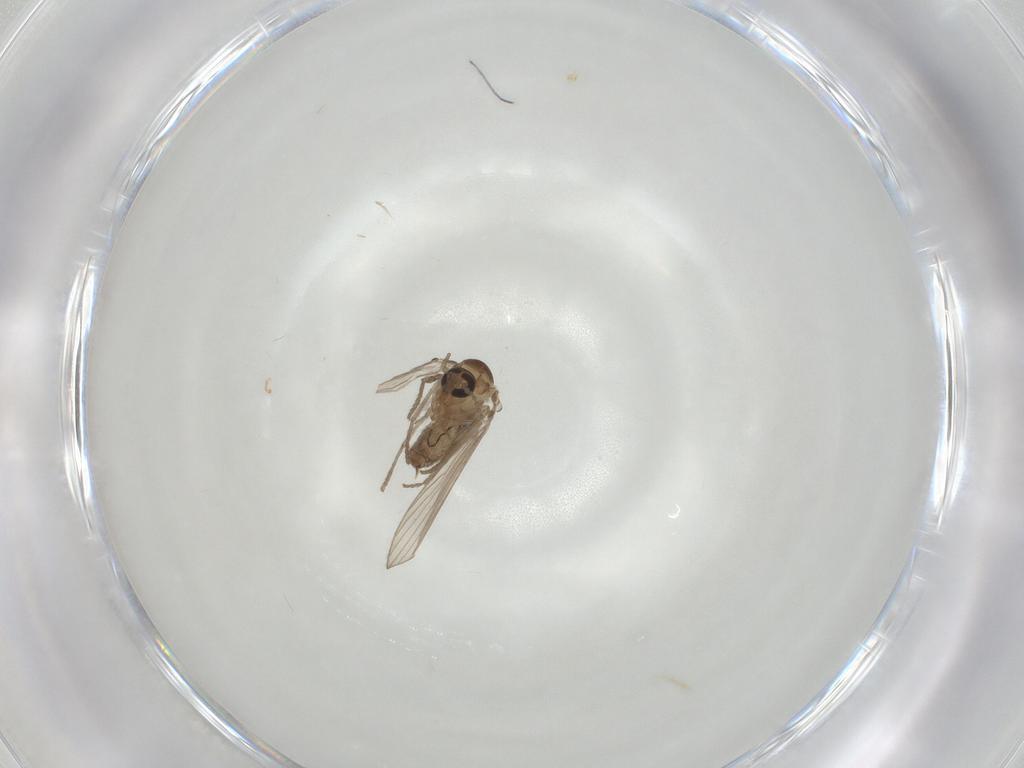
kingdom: Animalia
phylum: Arthropoda
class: Insecta
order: Diptera
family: Psychodidae
